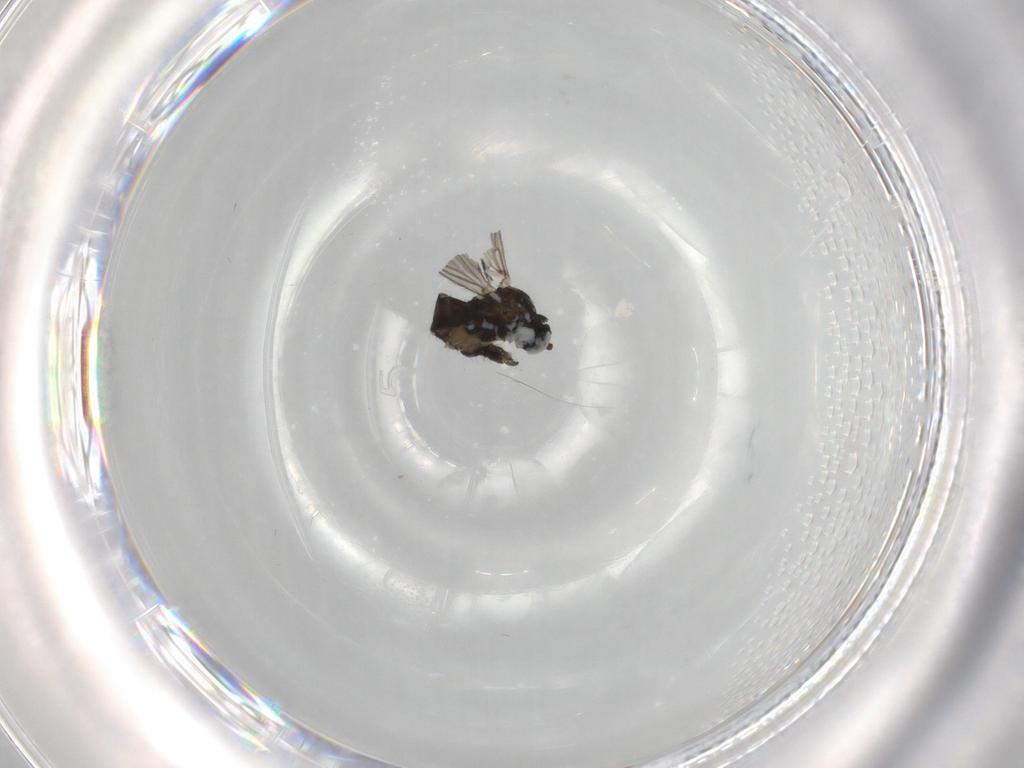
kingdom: Animalia
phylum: Arthropoda
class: Insecta
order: Diptera
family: Sciaridae
